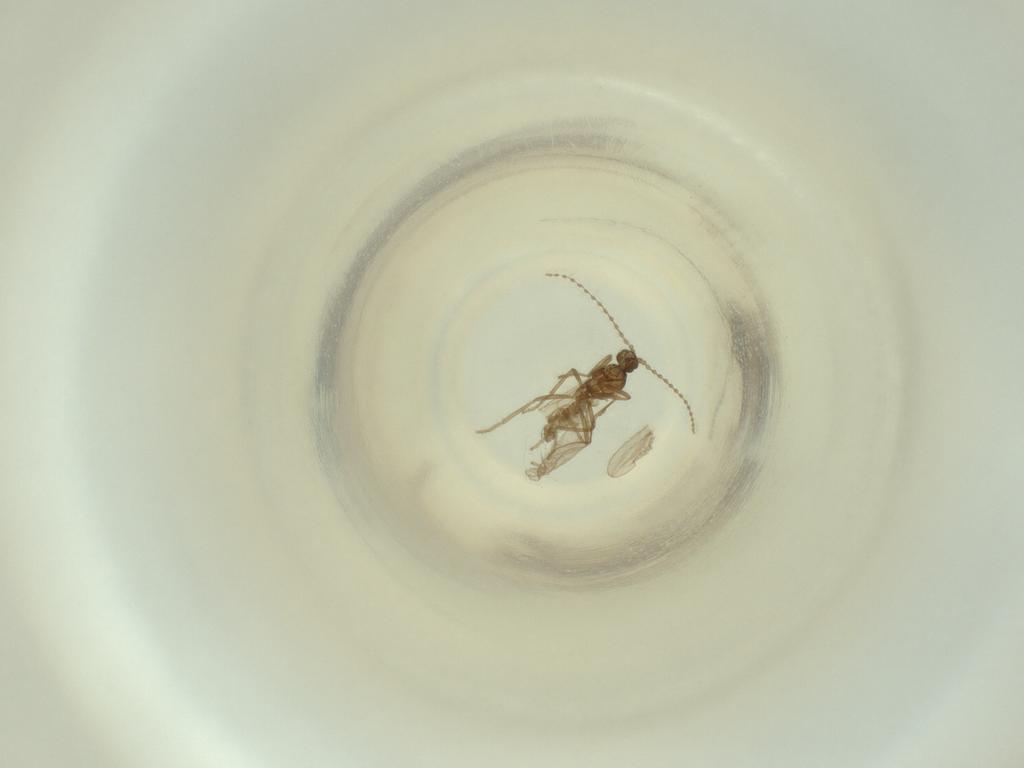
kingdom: Animalia
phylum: Arthropoda
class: Insecta
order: Diptera
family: Cecidomyiidae
